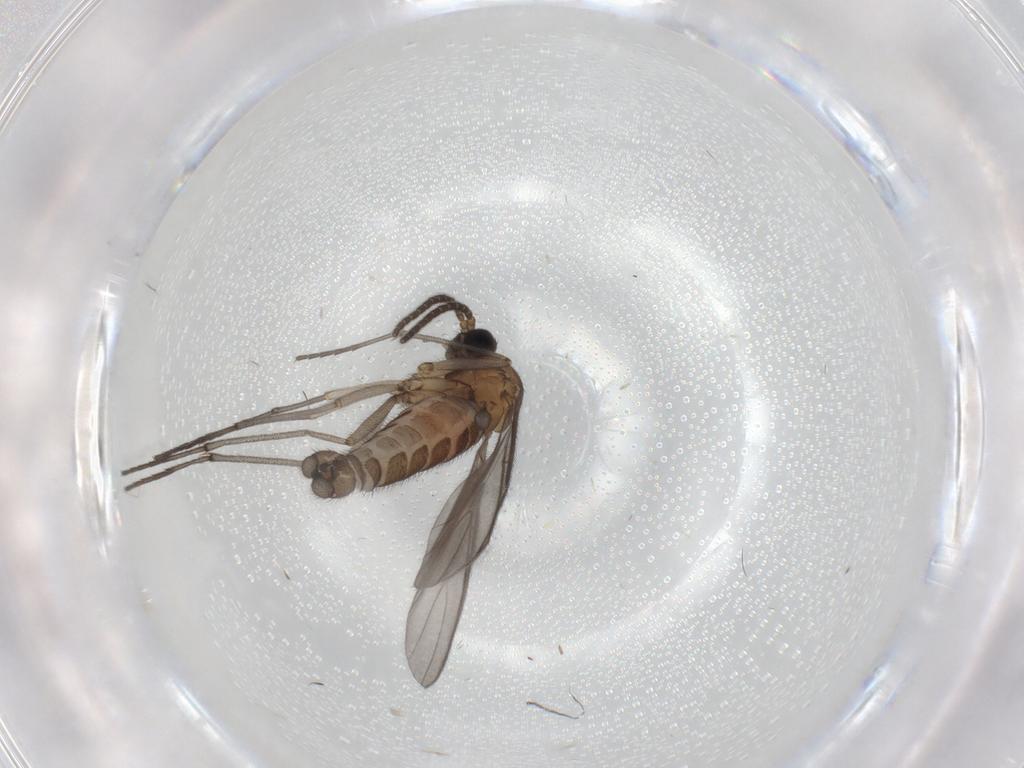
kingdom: Animalia
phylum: Arthropoda
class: Insecta
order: Diptera
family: Sciaridae
